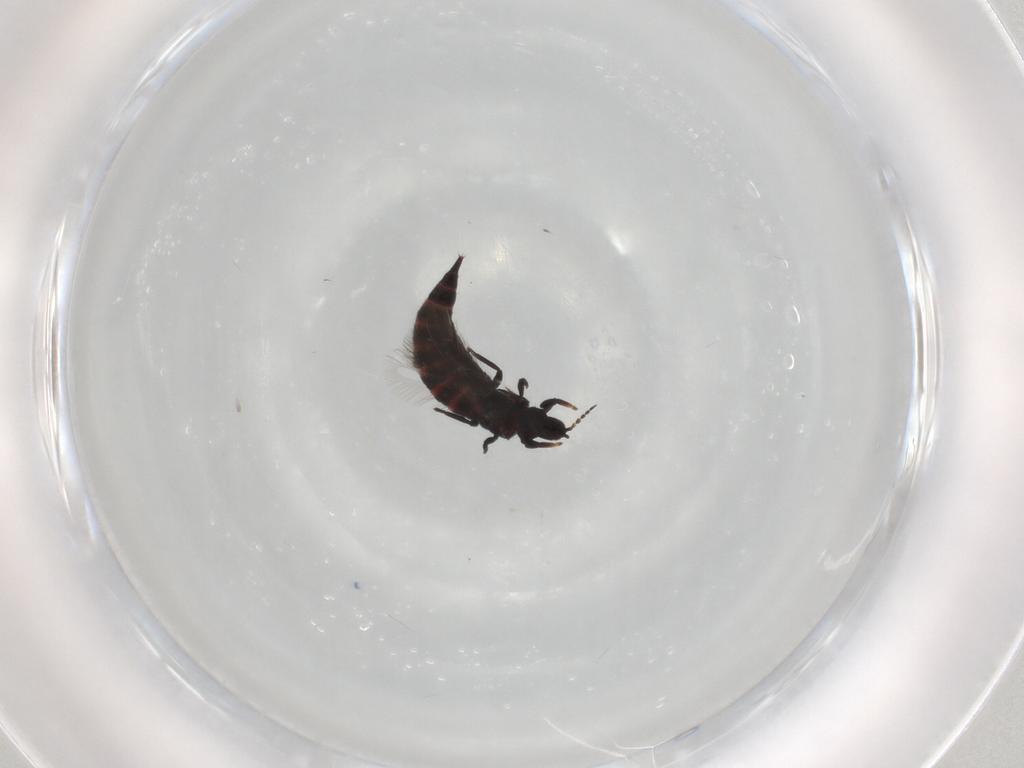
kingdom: Animalia
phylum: Arthropoda
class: Insecta
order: Thysanoptera
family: Phlaeothripidae
